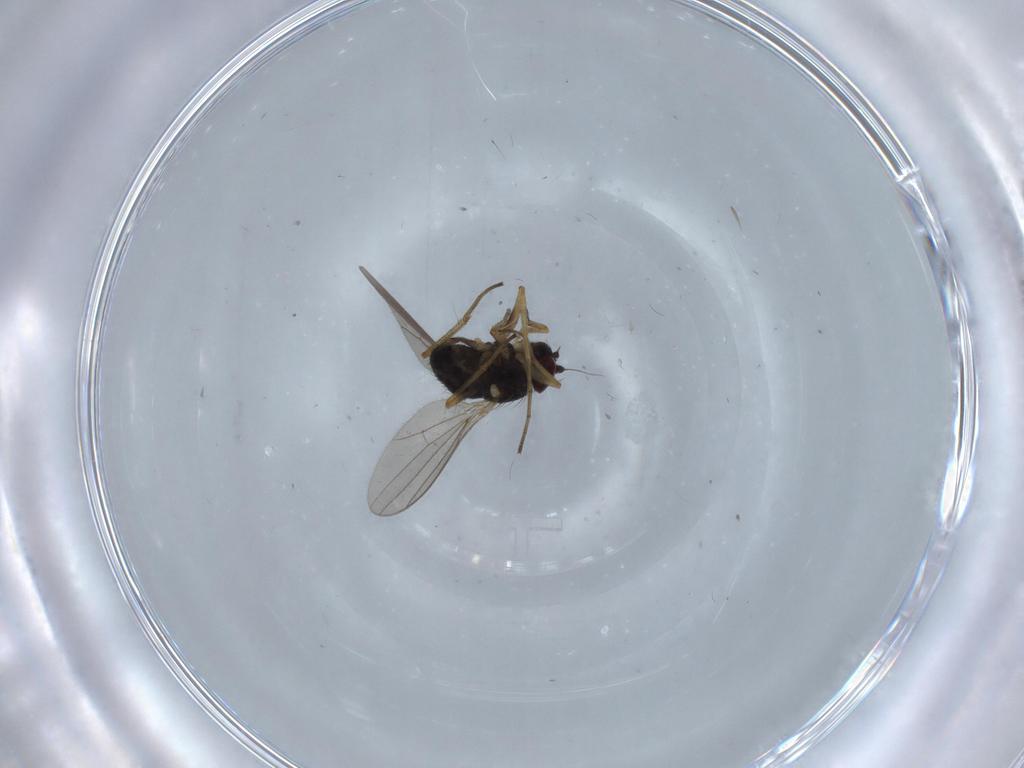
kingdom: Animalia
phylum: Arthropoda
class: Insecta
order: Diptera
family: Dolichopodidae
